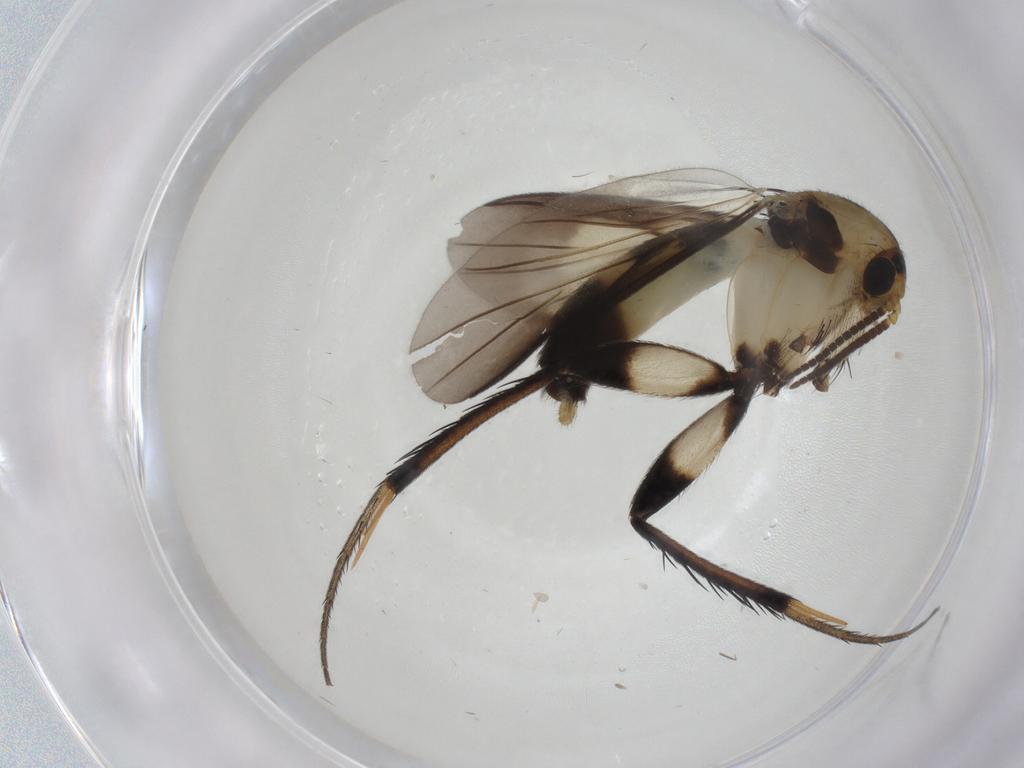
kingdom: Animalia
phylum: Arthropoda
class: Insecta
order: Diptera
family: Mycetophilidae
